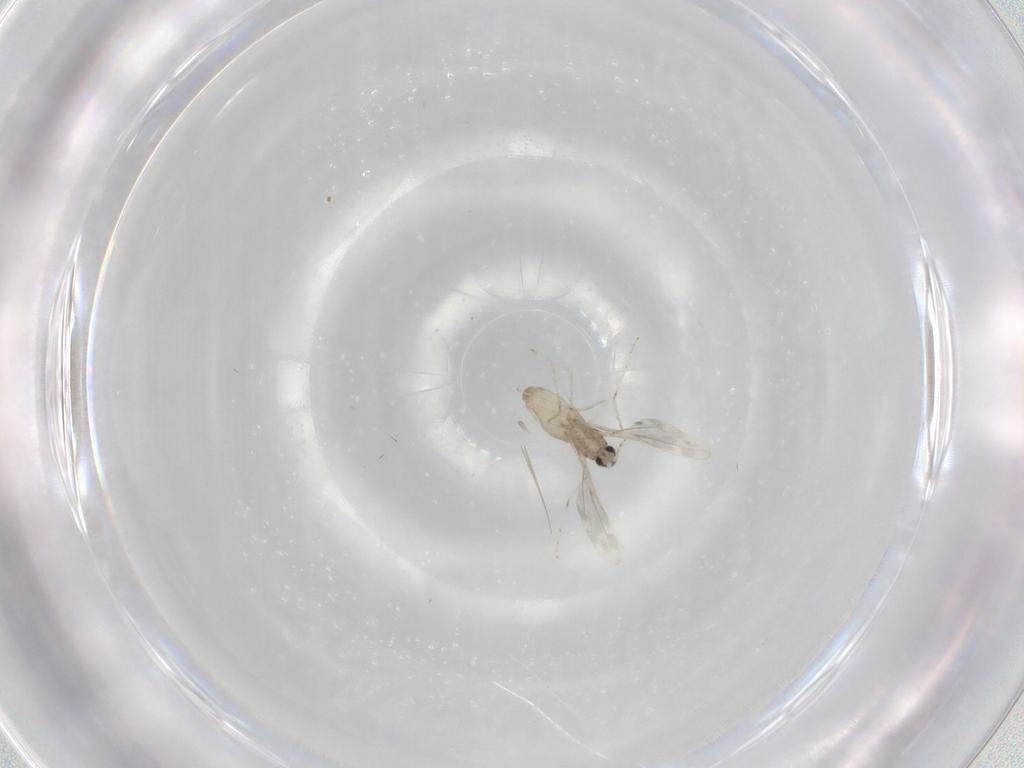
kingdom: Animalia
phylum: Arthropoda
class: Insecta
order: Diptera
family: Cecidomyiidae
